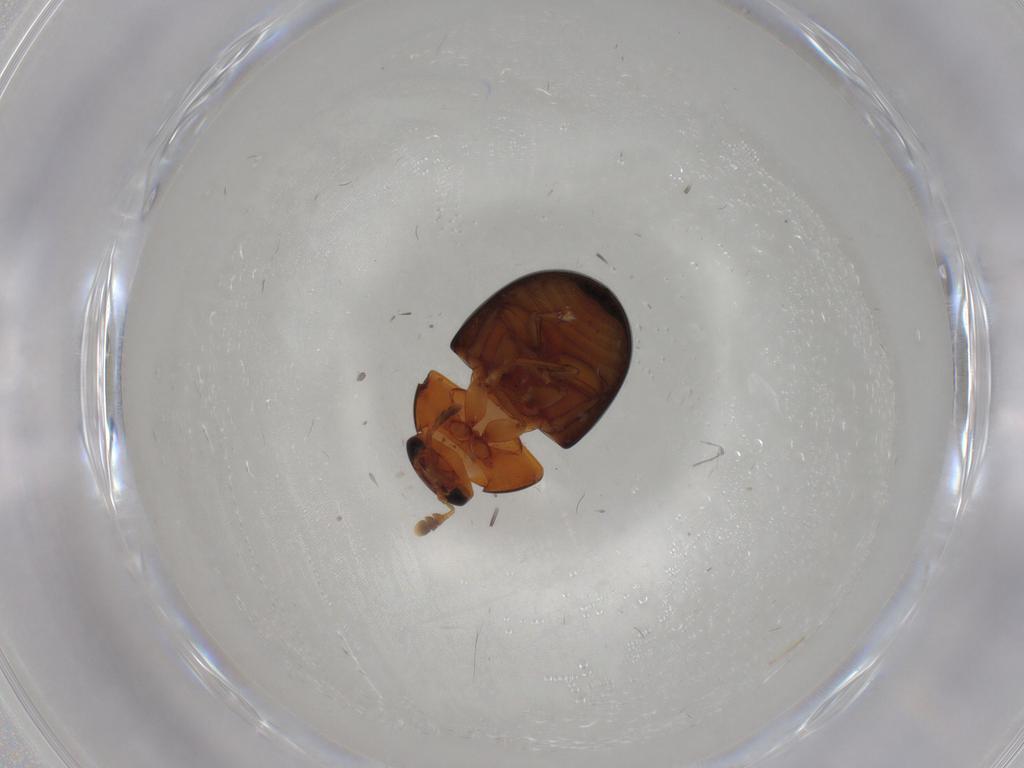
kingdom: Animalia
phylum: Arthropoda
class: Insecta
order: Coleoptera
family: Phalacridae
